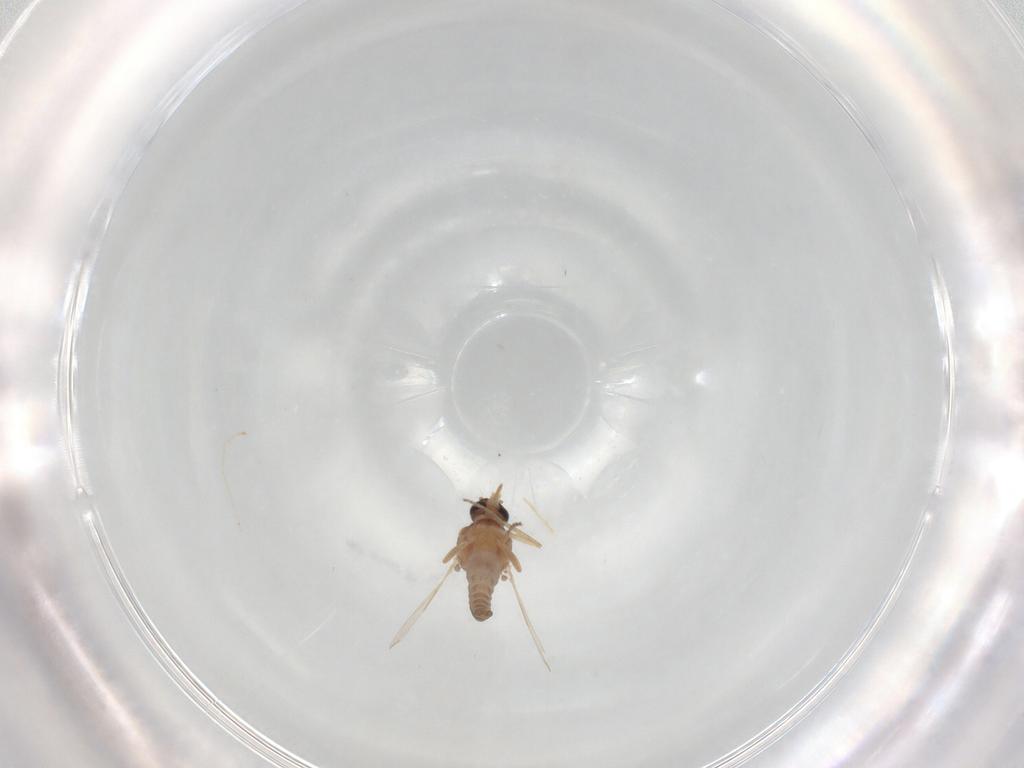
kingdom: Animalia
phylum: Arthropoda
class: Insecta
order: Diptera
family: Ceratopogonidae
